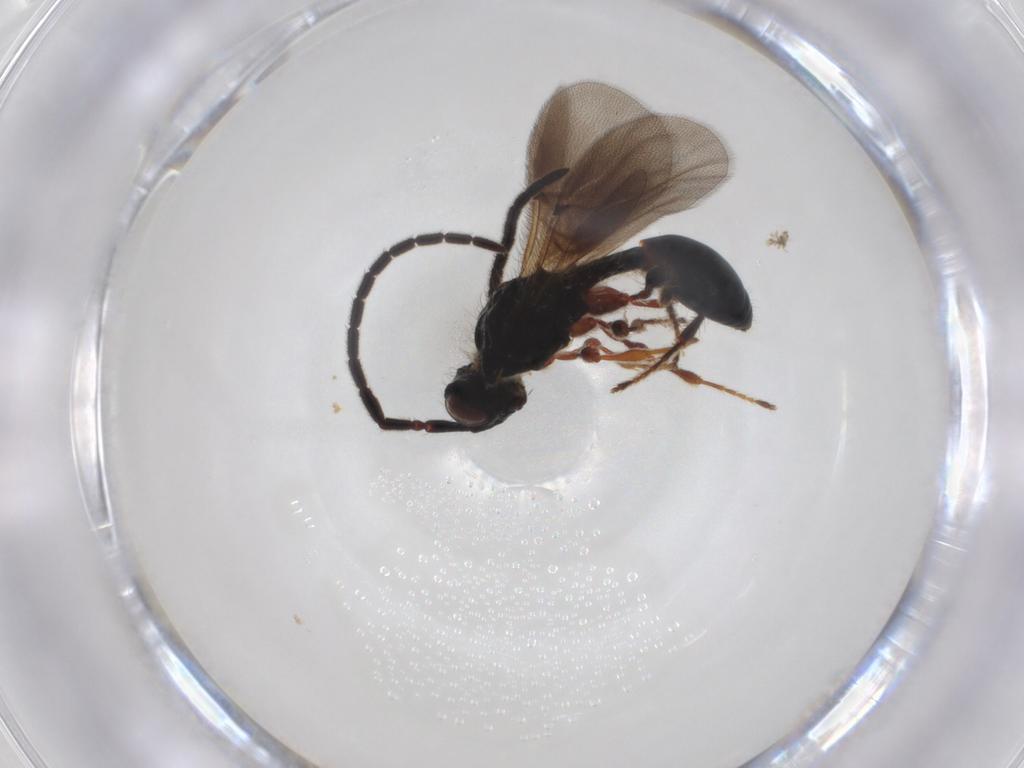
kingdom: Animalia
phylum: Arthropoda
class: Insecta
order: Hymenoptera
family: Diapriidae
